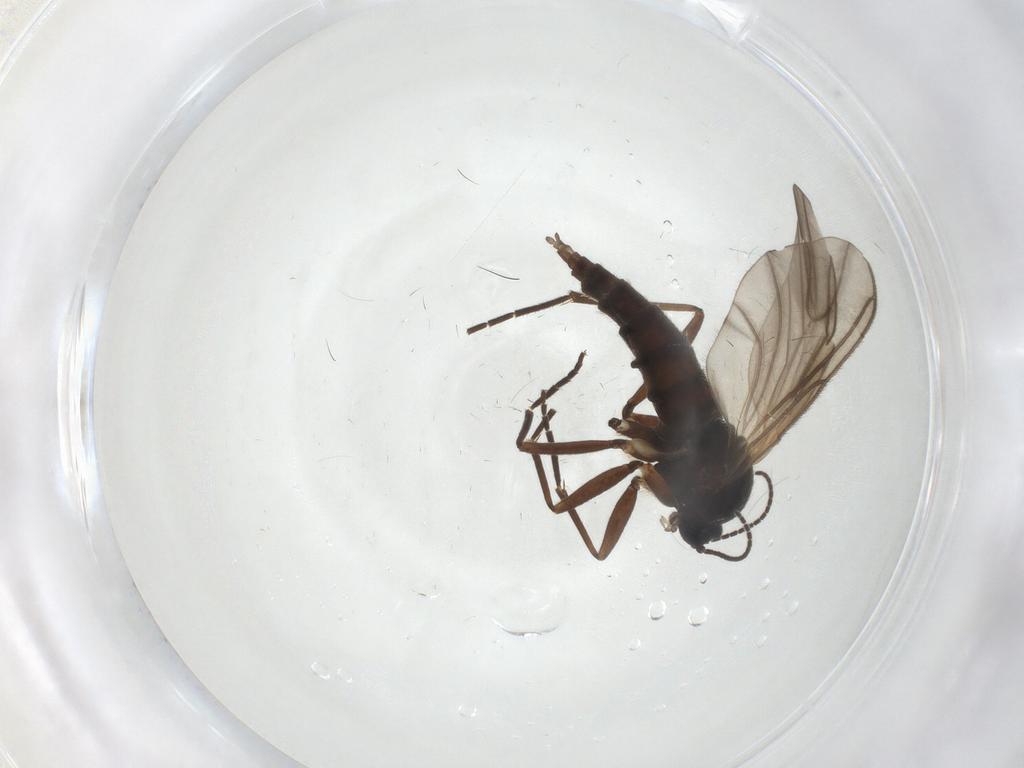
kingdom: Animalia
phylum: Arthropoda
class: Insecta
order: Diptera
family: Sciaridae
